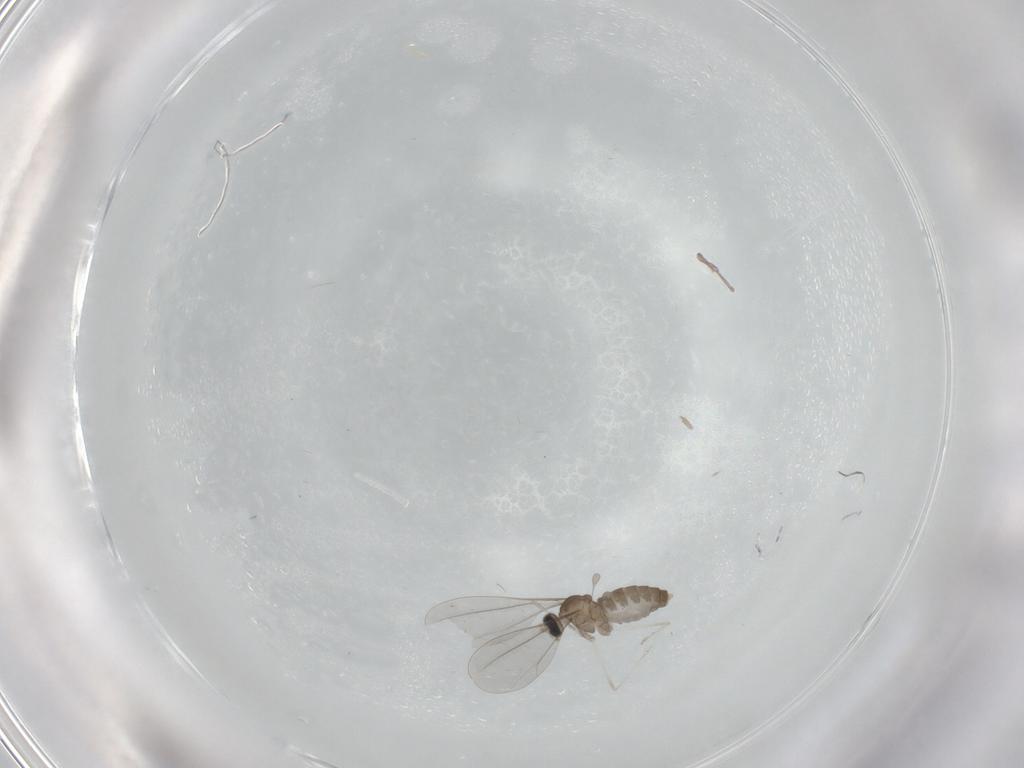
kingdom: Animalia
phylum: Arthropoda
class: Insecta
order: Diptera
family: Cecidomyiidae
